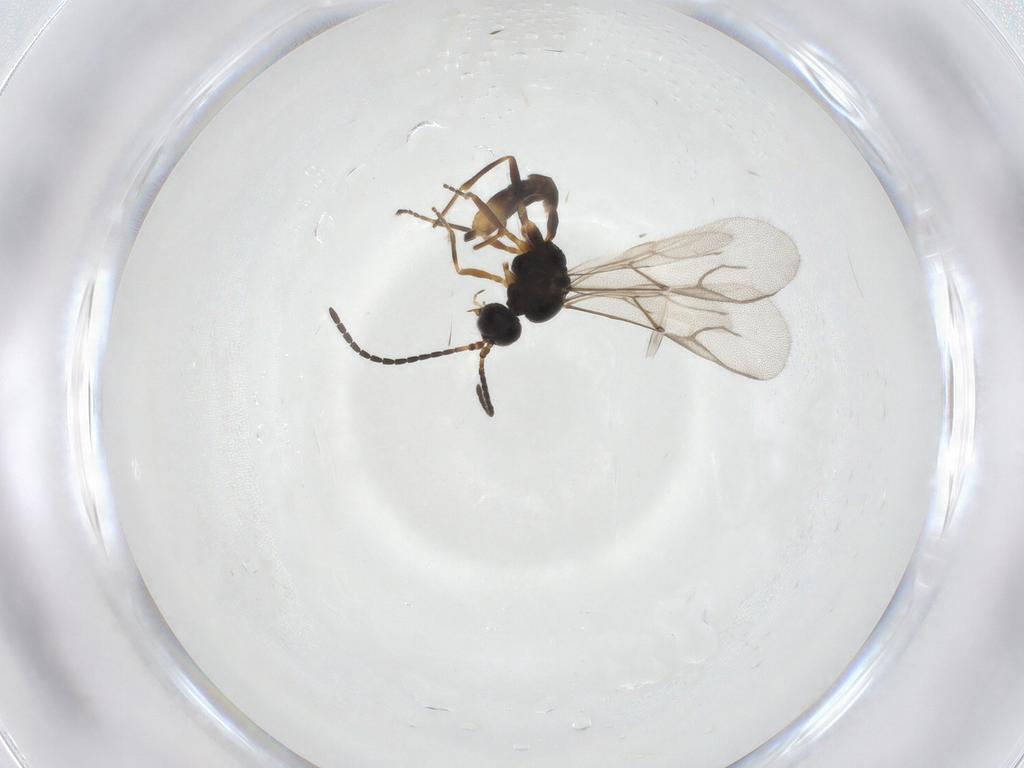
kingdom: Animalia
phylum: Arthropoda
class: Insecta
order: Hymenoptera
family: Braconidae
